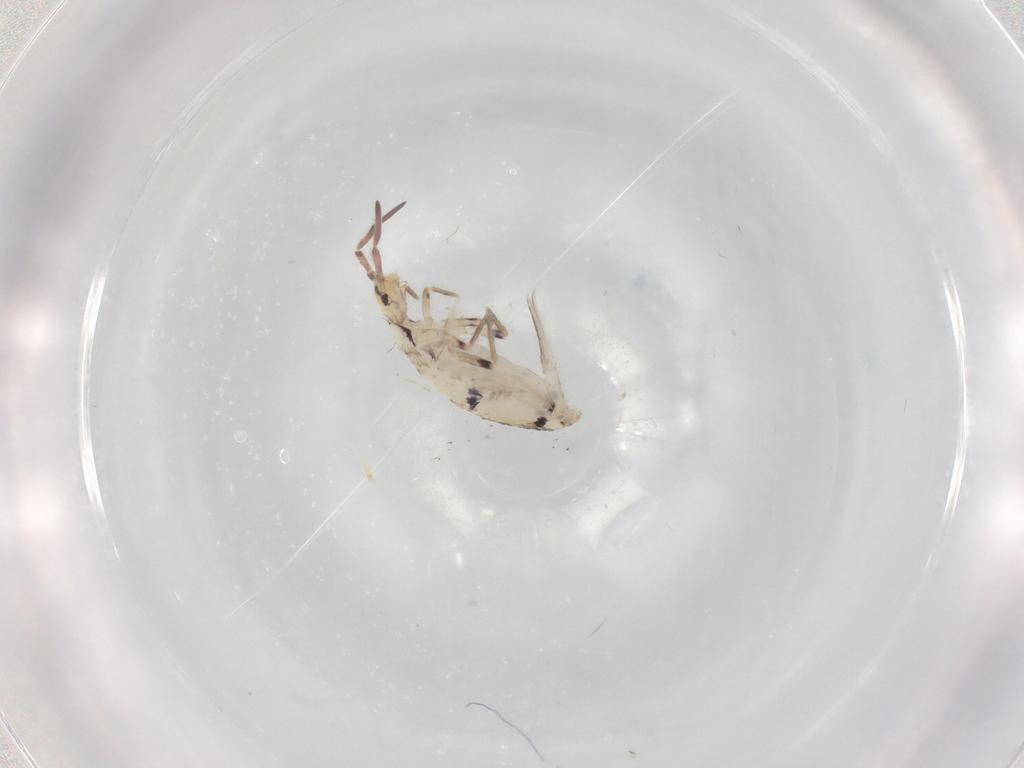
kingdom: Animalia
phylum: Arthropoda
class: Collembola
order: Entomobryomorpha
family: Entomobryidae
